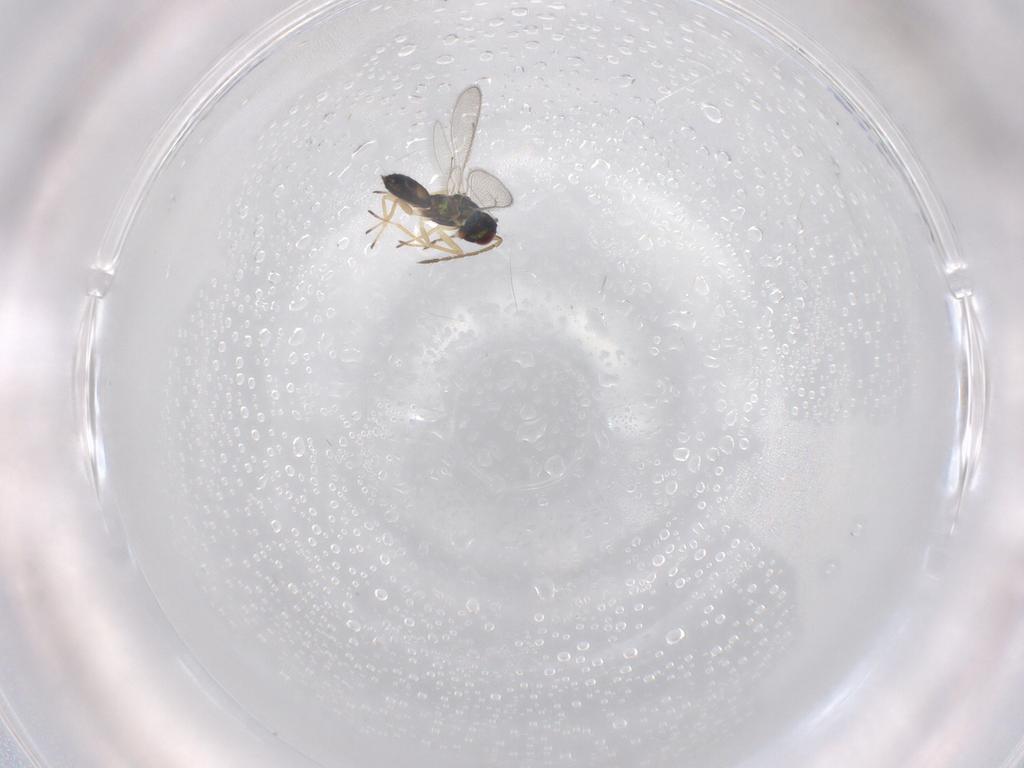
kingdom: Animalia
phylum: Arthropoda
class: Insecta
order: Hymenoptera
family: Eulophidae
